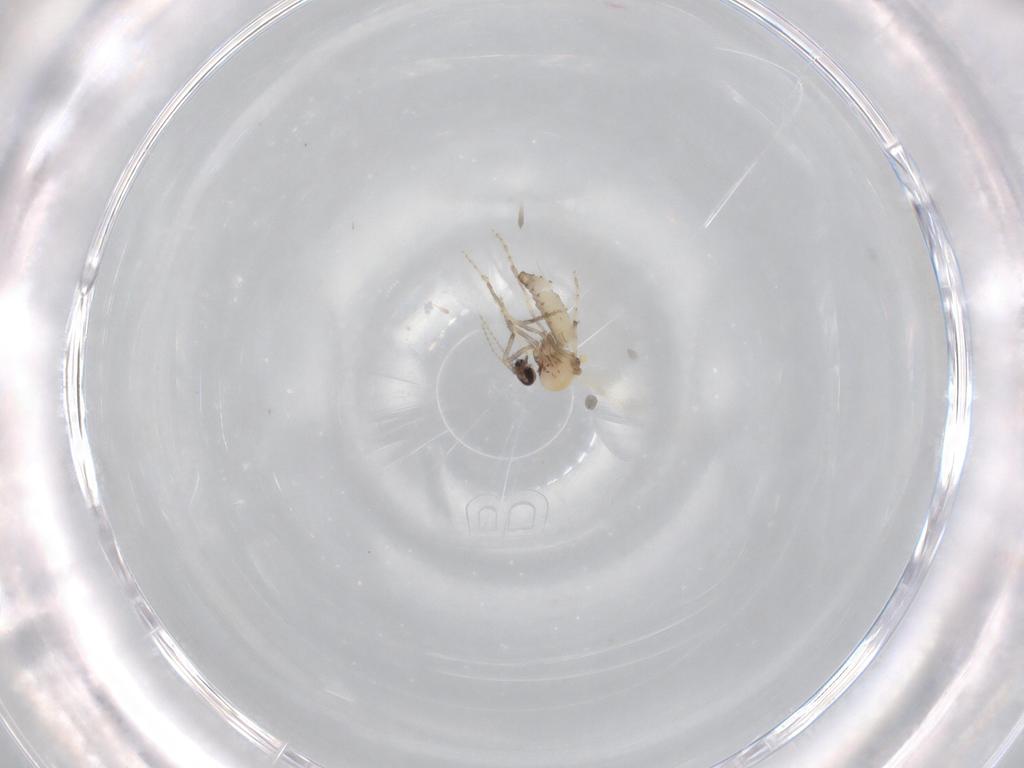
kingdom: Animalia
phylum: Arthropoda
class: Insecta
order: Diptera
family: Ceratopogonidae
